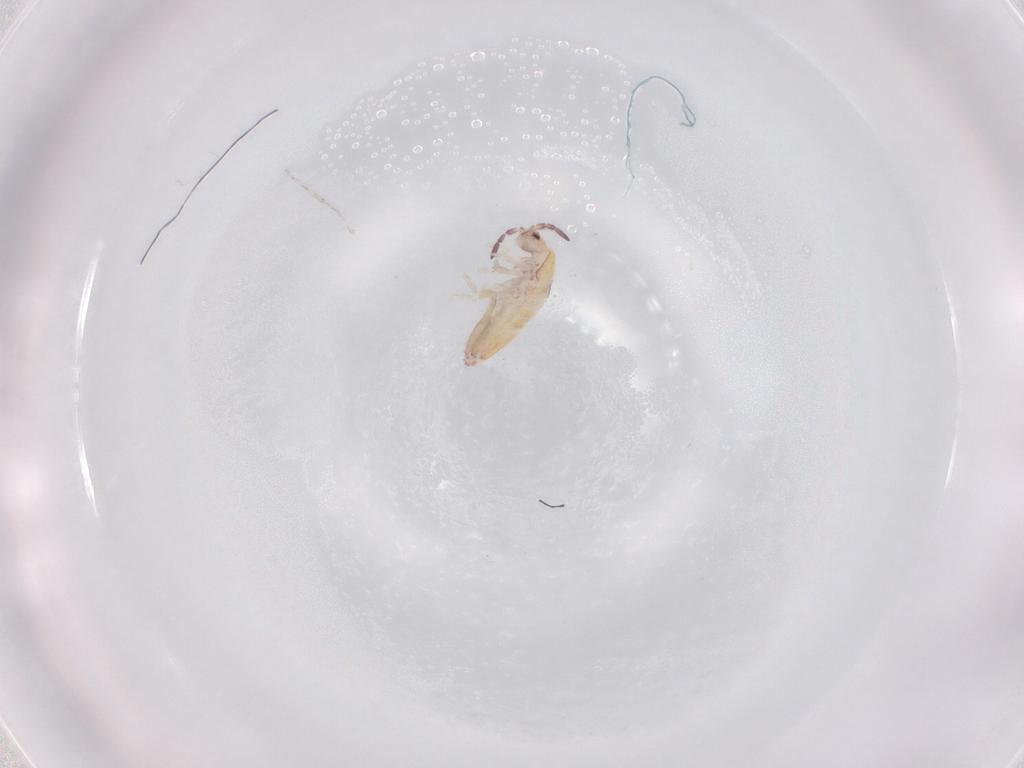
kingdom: Animalia
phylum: Arthropoda
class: Collembola
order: Entomobryomorpha
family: Entomobryidae
